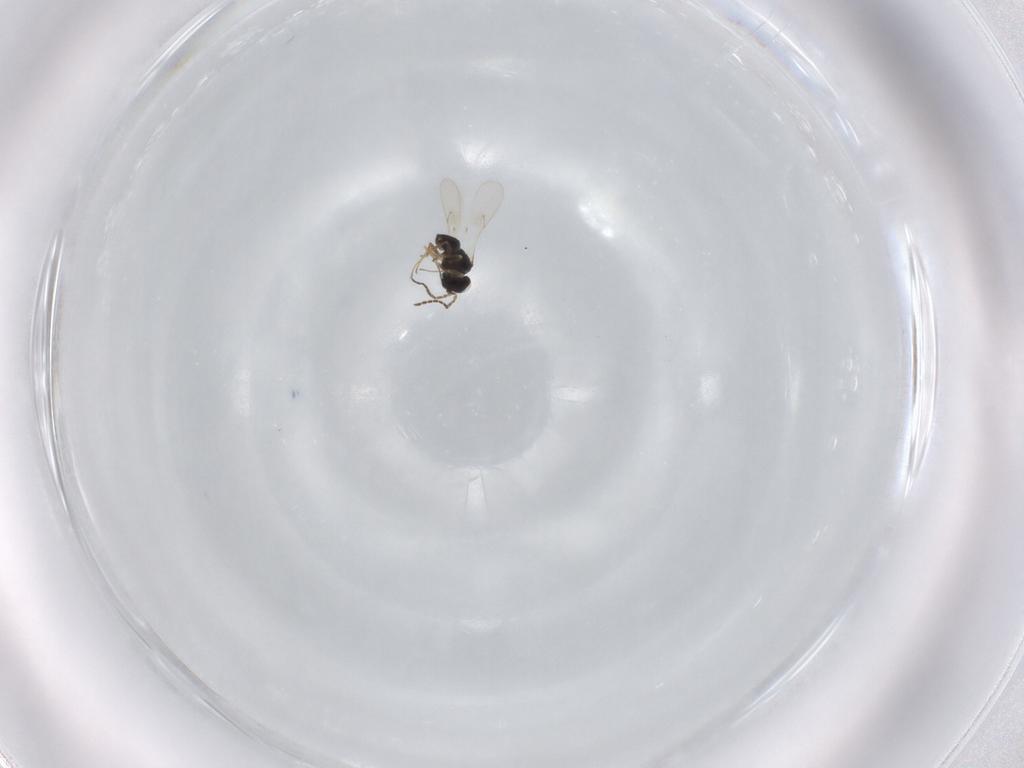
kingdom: Animalia
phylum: Arthropoda
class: Insecta
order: Hymenoptera
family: Scelionidae
